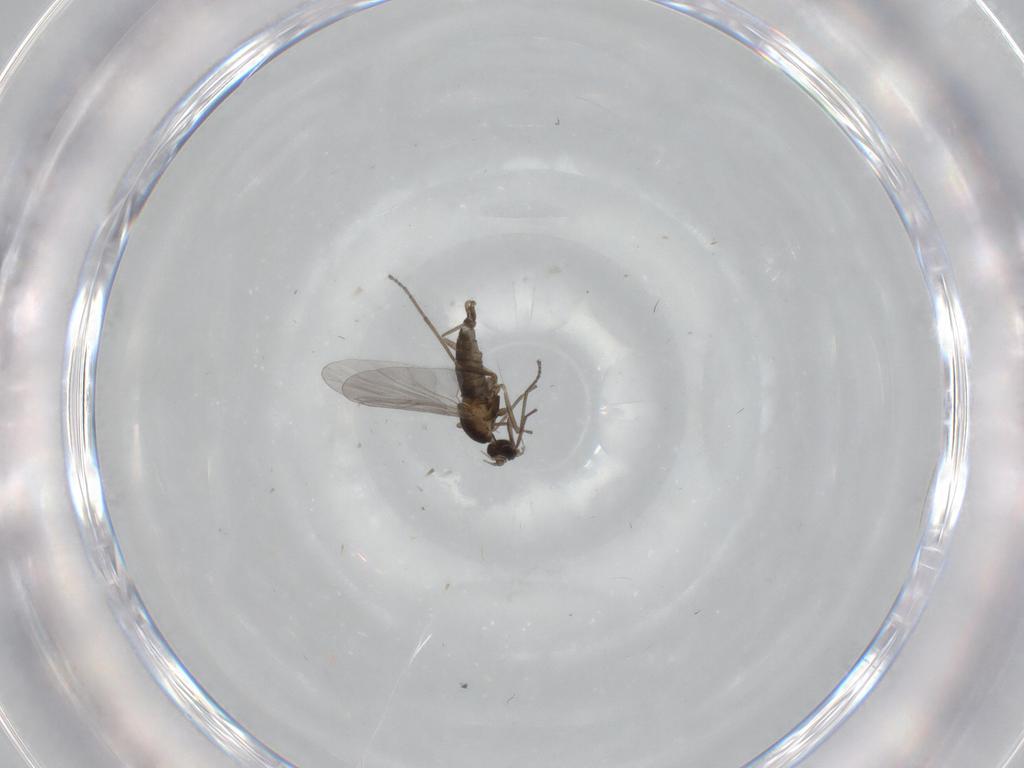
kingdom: Animalia
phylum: Arthropoda
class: Insecta
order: Diptera
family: Cecidomyiidae
